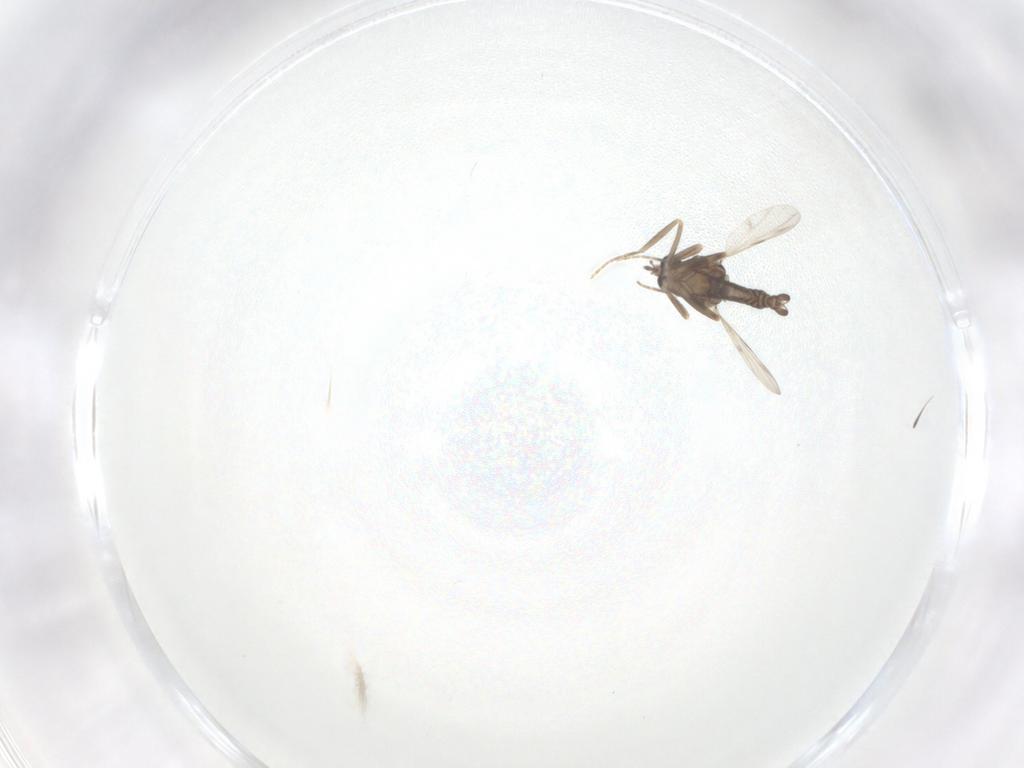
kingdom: Animalia
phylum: Arthropoda
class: Insecta
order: Diptera
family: Ceratopogonidae
